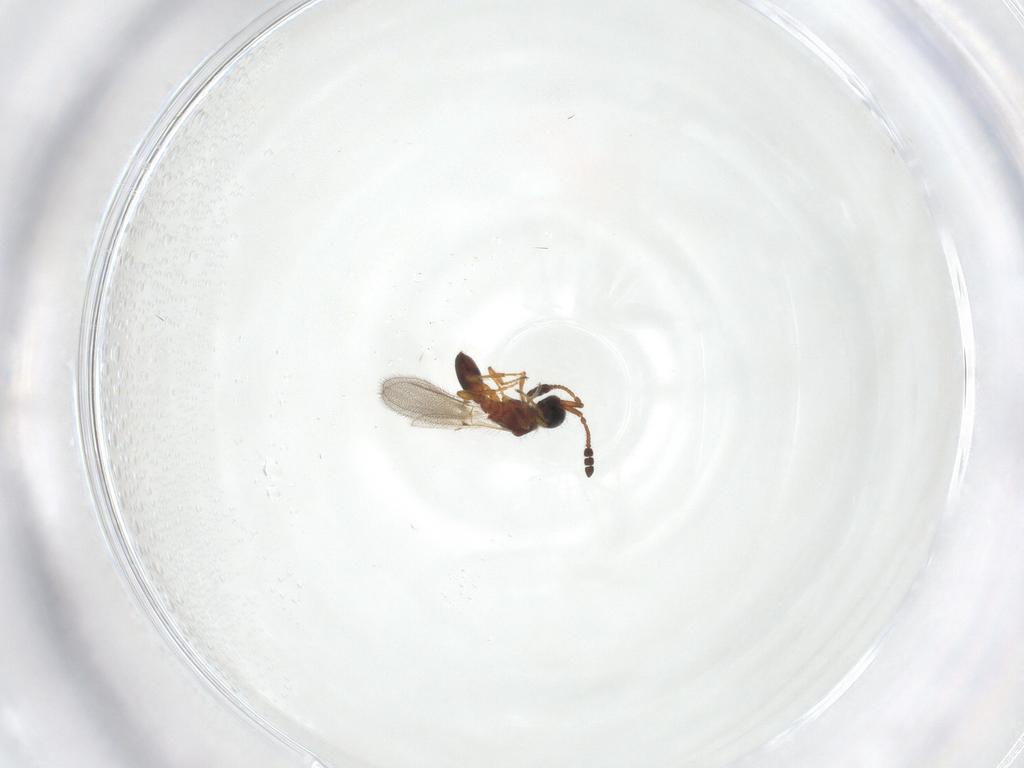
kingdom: Animalia
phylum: Arthropoda
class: Insecta
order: Hymenoptera
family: Diapriidae
